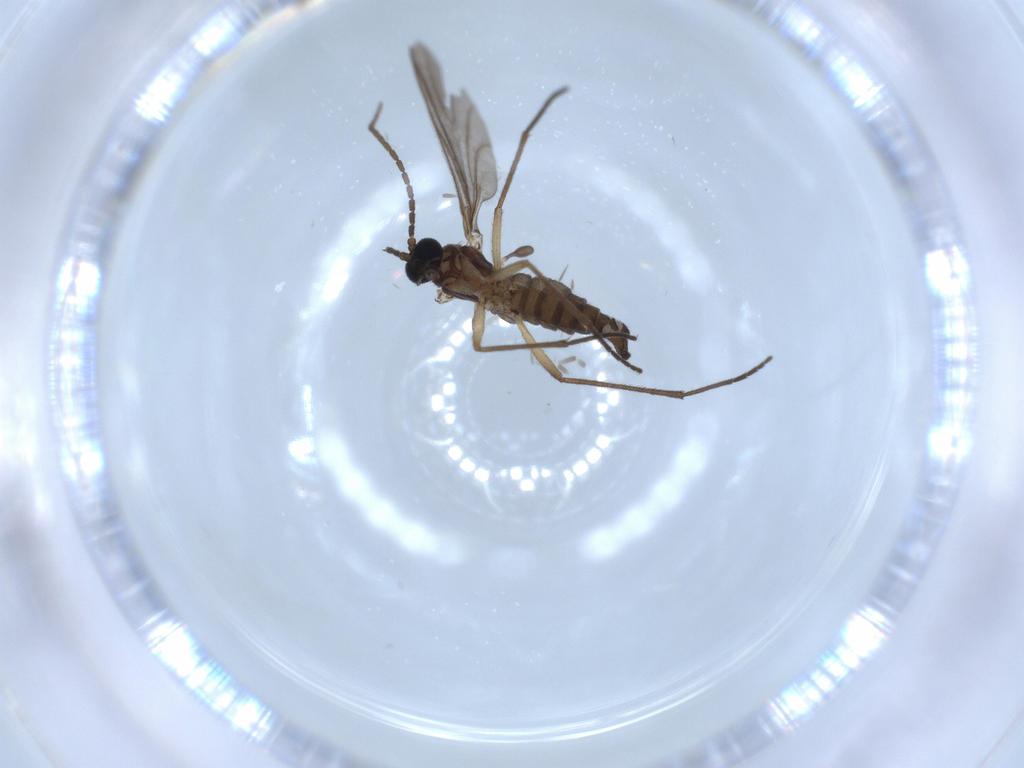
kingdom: Animalia
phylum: Arthropoda
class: Insecta
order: Diptera
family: Sciaridae
